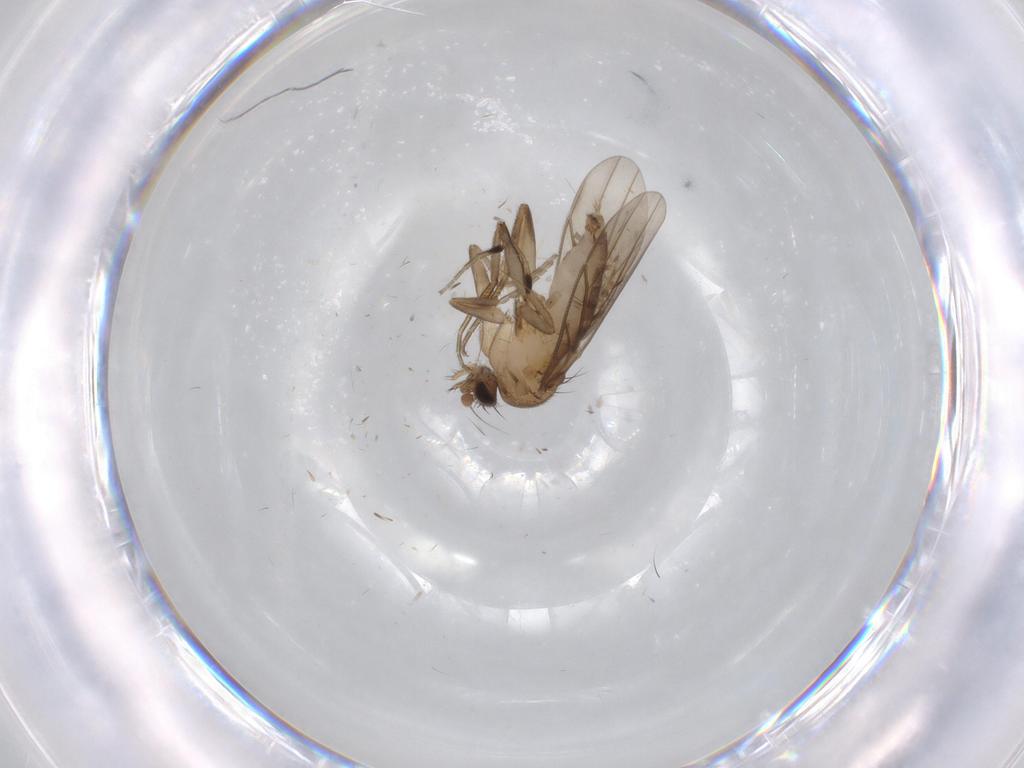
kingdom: Animalia
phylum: Arthropoda
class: Insecta
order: Diptera
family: Phoridae
